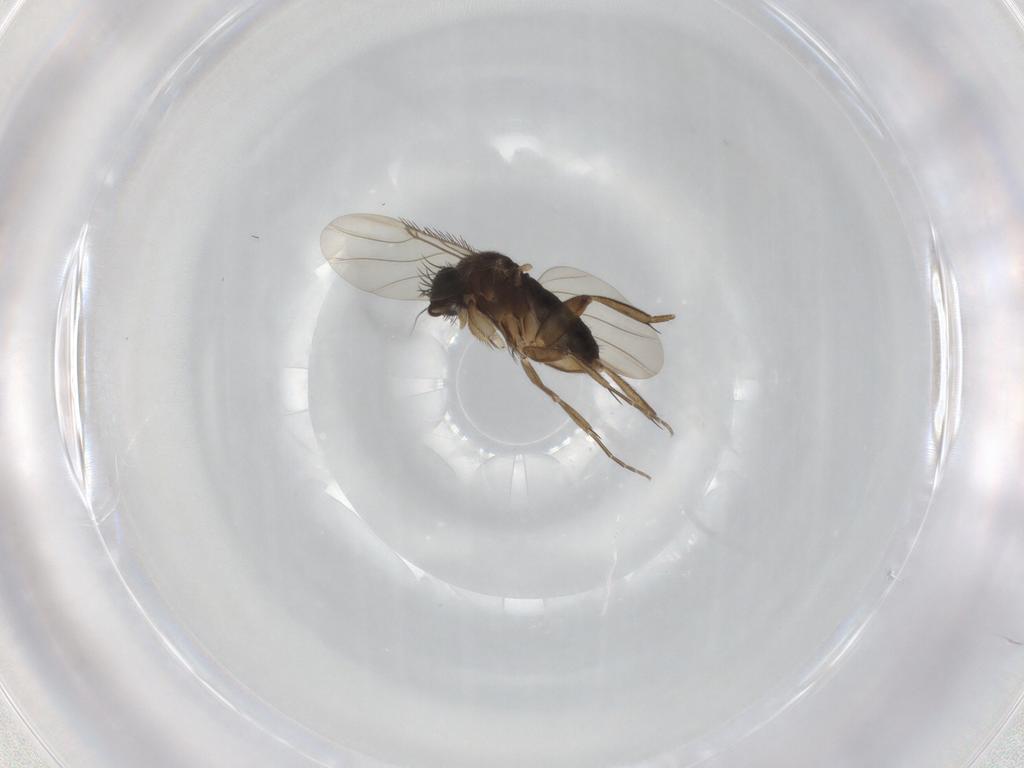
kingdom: Animalia
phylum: Arthropoda
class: Insecta
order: Diptera
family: Phoridae
